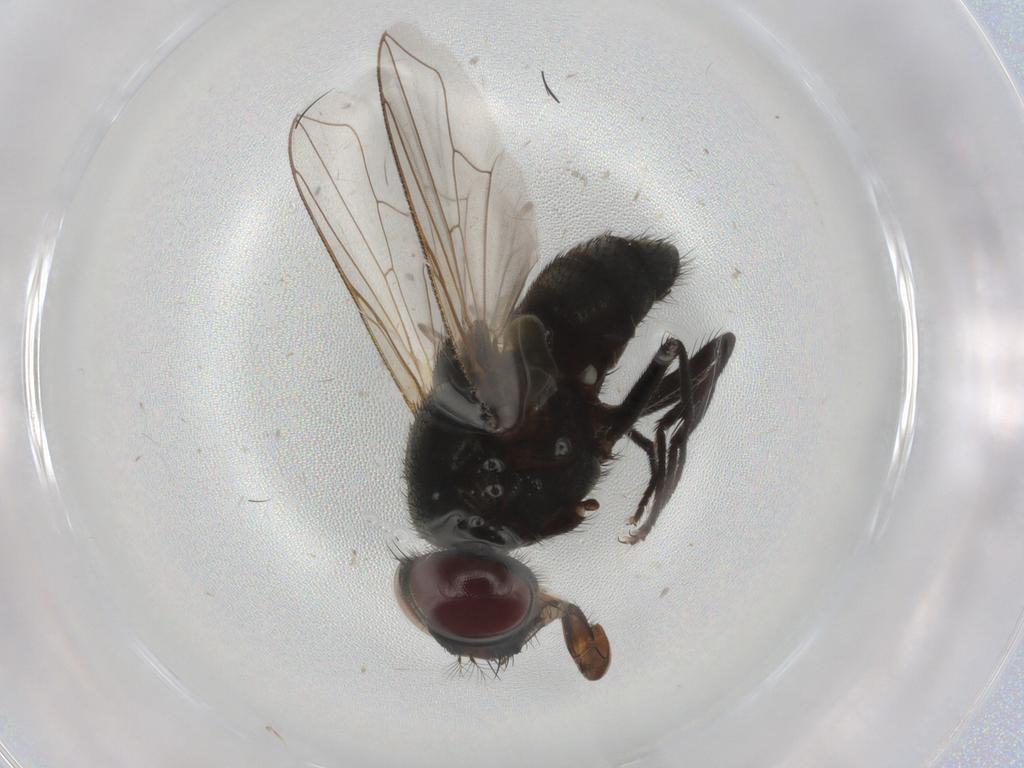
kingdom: Animalia
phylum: Arthropoda
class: Insecta
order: Diptera
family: Muscidae
